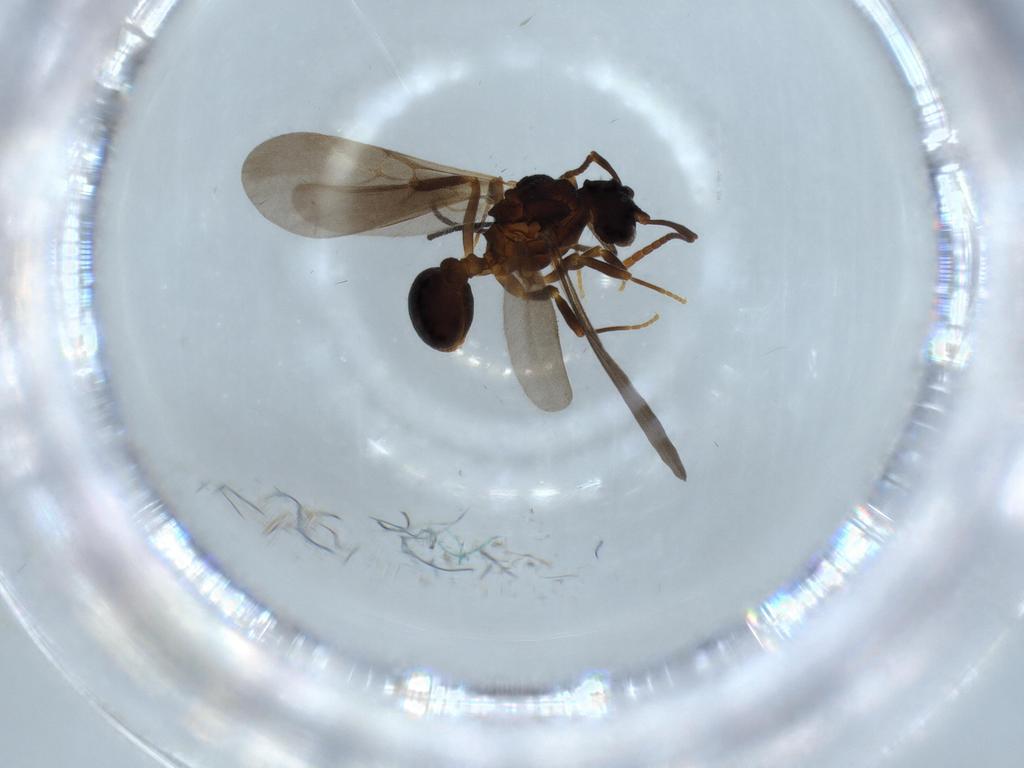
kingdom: Animalia
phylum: Arthropoda
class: Insecta
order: Hymenoptera
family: Formicidae
